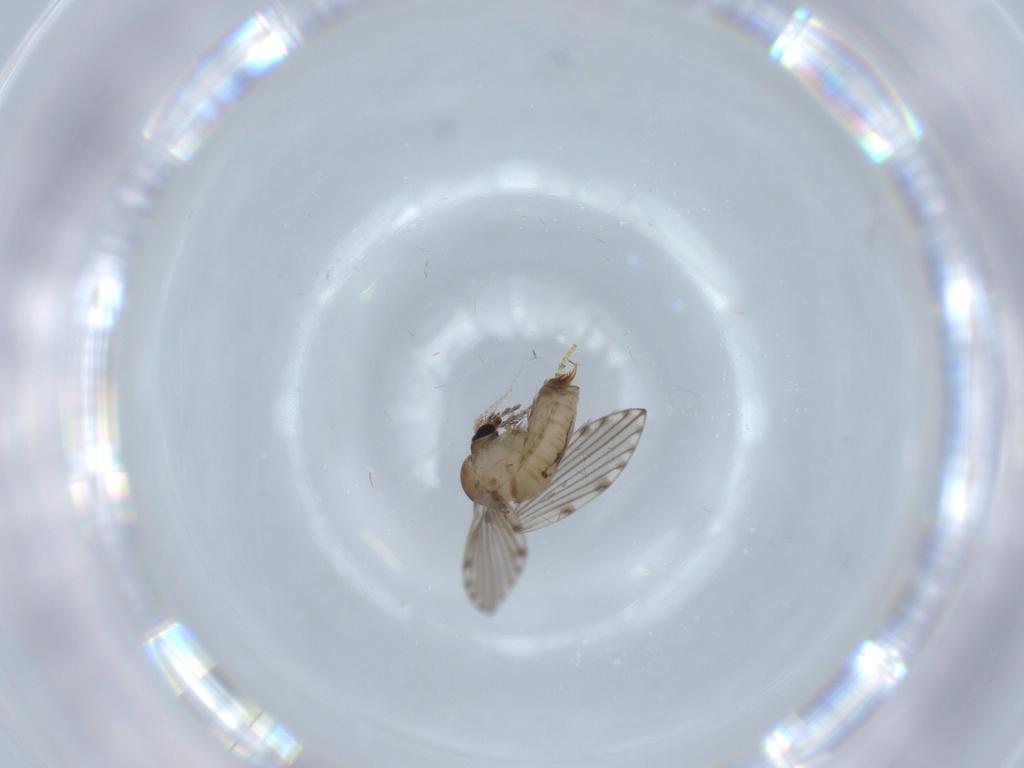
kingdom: Animalia
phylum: Arthropoda
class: Insecta
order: Diptera
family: Psychodidae
